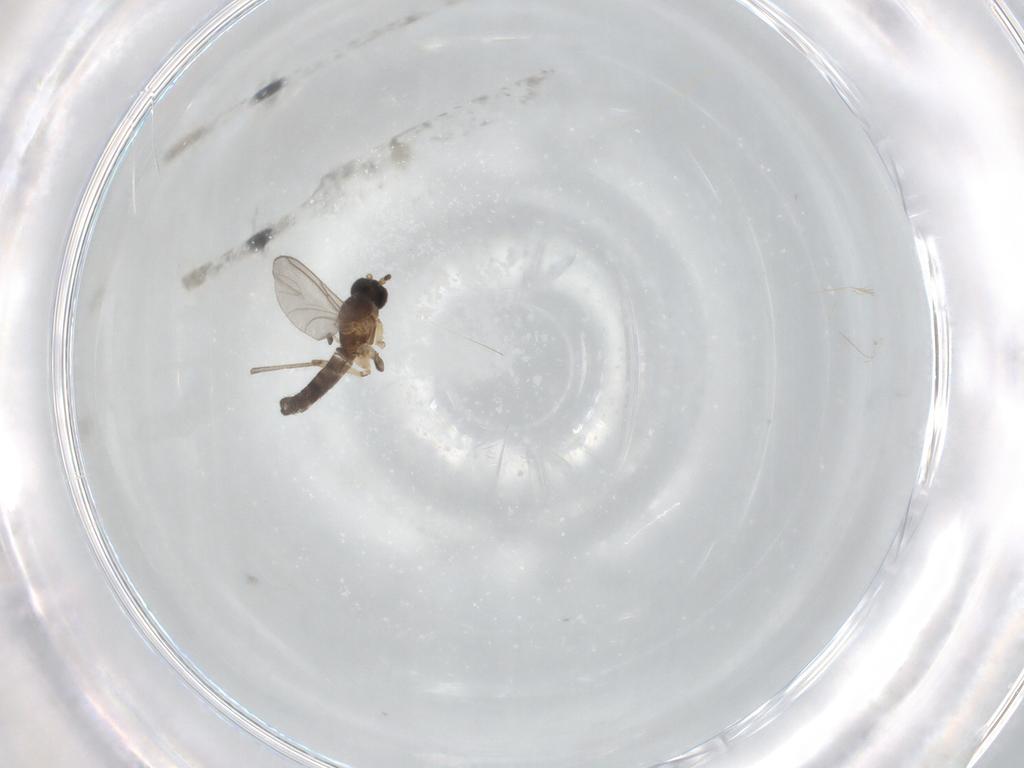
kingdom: Animalia
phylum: Arthropoda
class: Insecta
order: Diptera
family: Sciaridae
